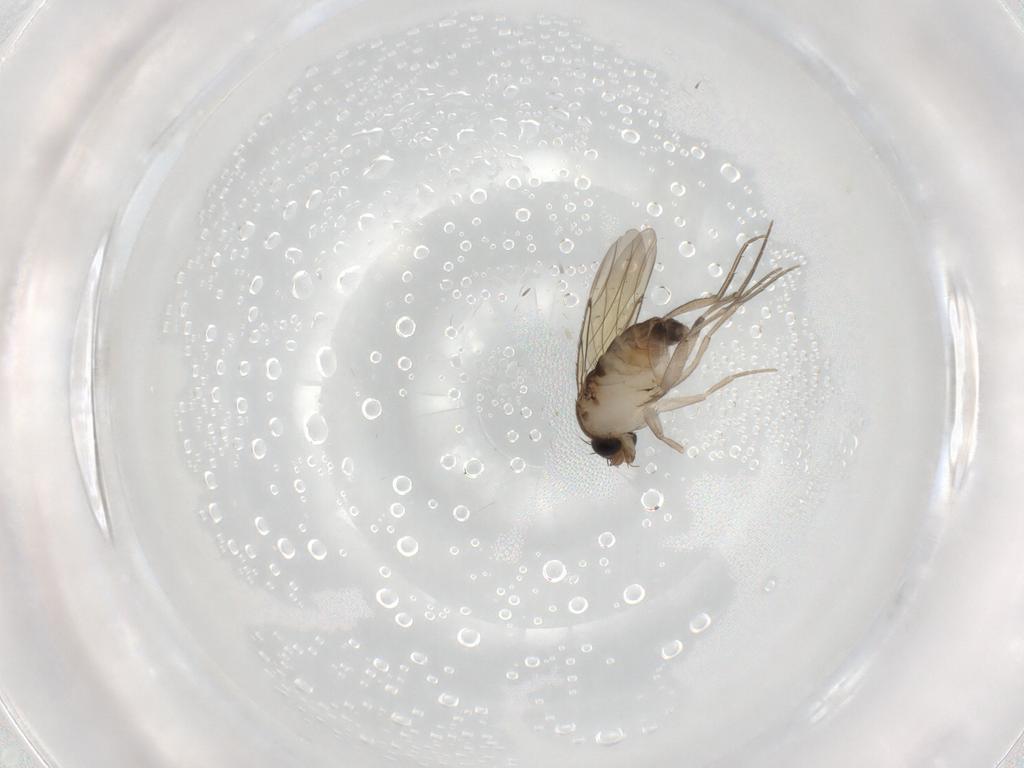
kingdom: Animalia
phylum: Arthropoda
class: Insecta
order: Diptera
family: Phoridae
